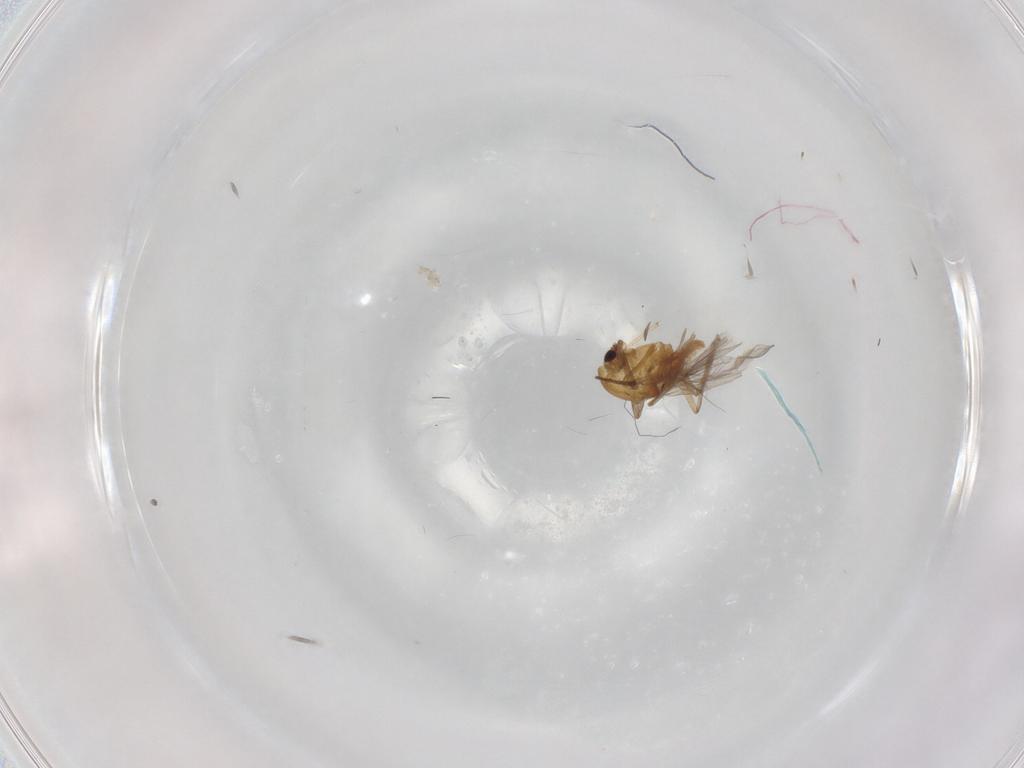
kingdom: Animalia
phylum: Arthropoda
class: Insecta
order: Diptera
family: Chironomidae
